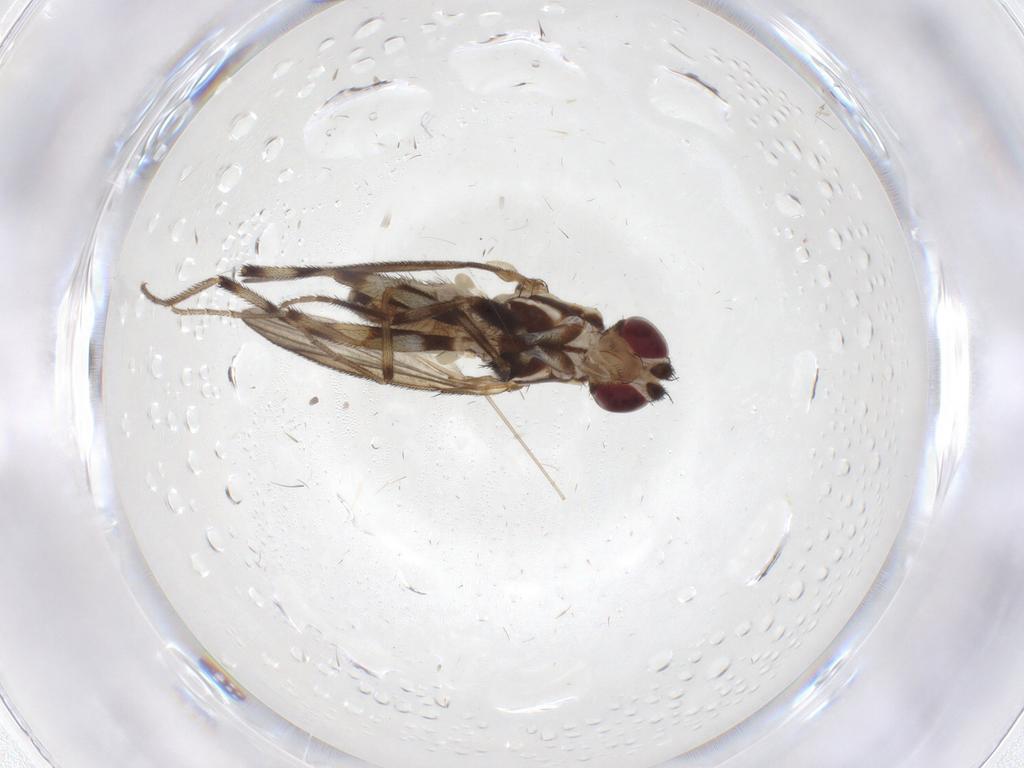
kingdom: Animalia
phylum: Arthropoda
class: Insecta
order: Diptera
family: Pseudopomyzidae
